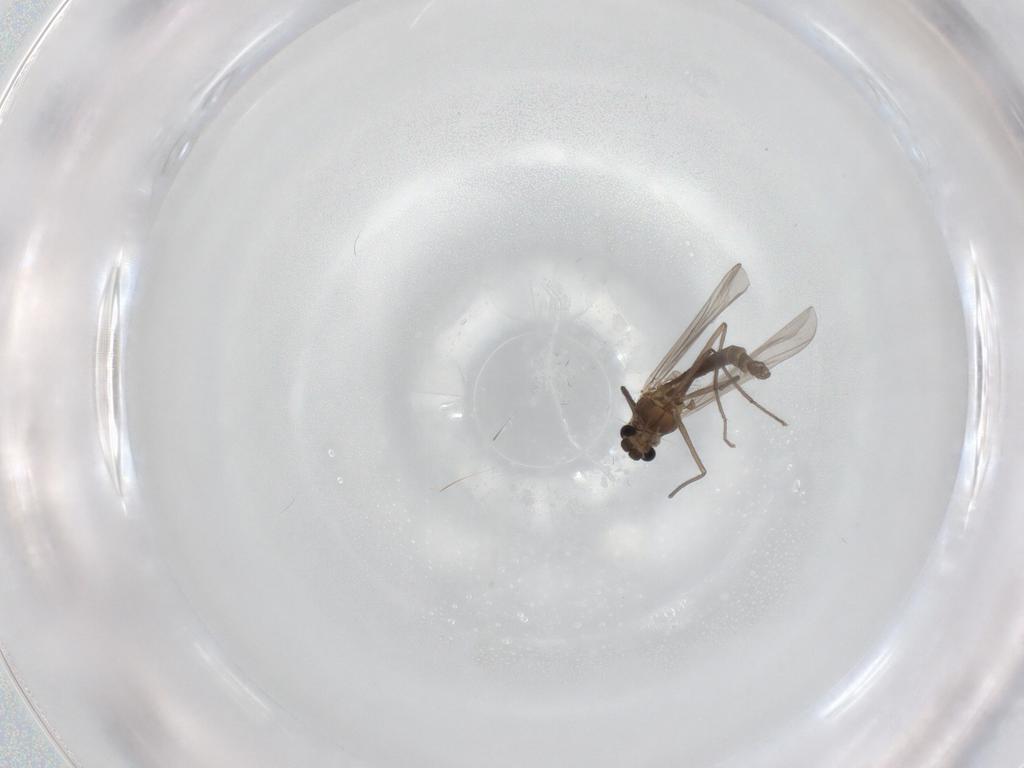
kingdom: Animalia
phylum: Arthropoda
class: Insecta
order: Diptera
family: Chironomidae
